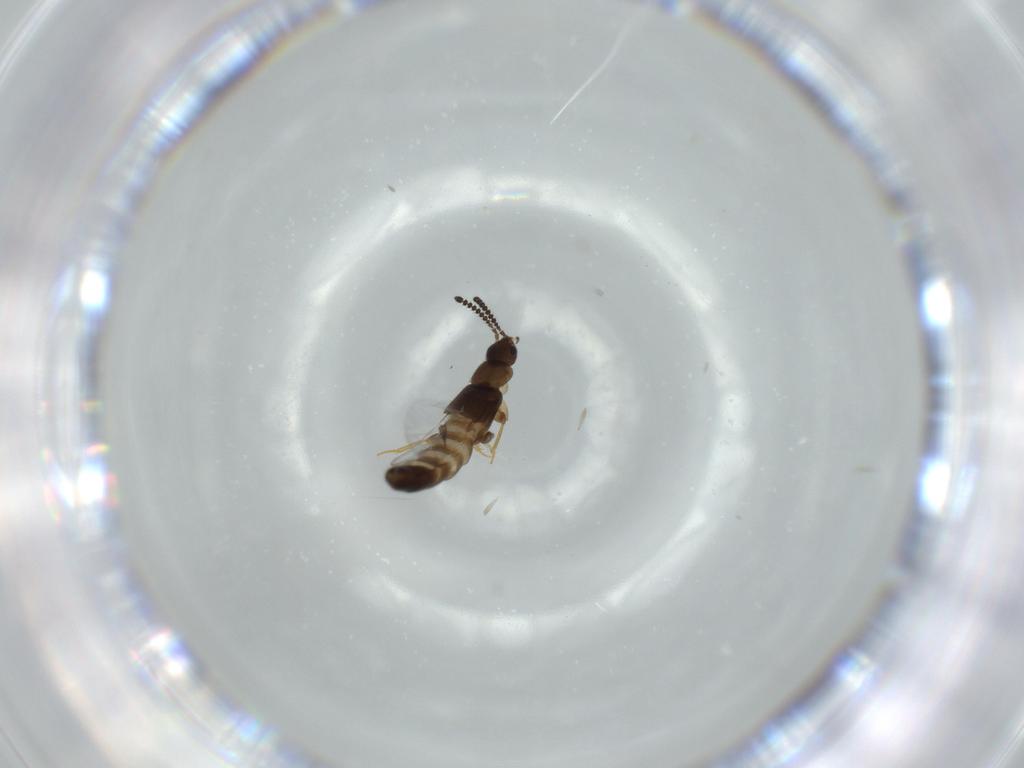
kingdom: Animalia
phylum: Arthropoda
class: Insecta
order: Coleoptera
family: Staphylinidae
